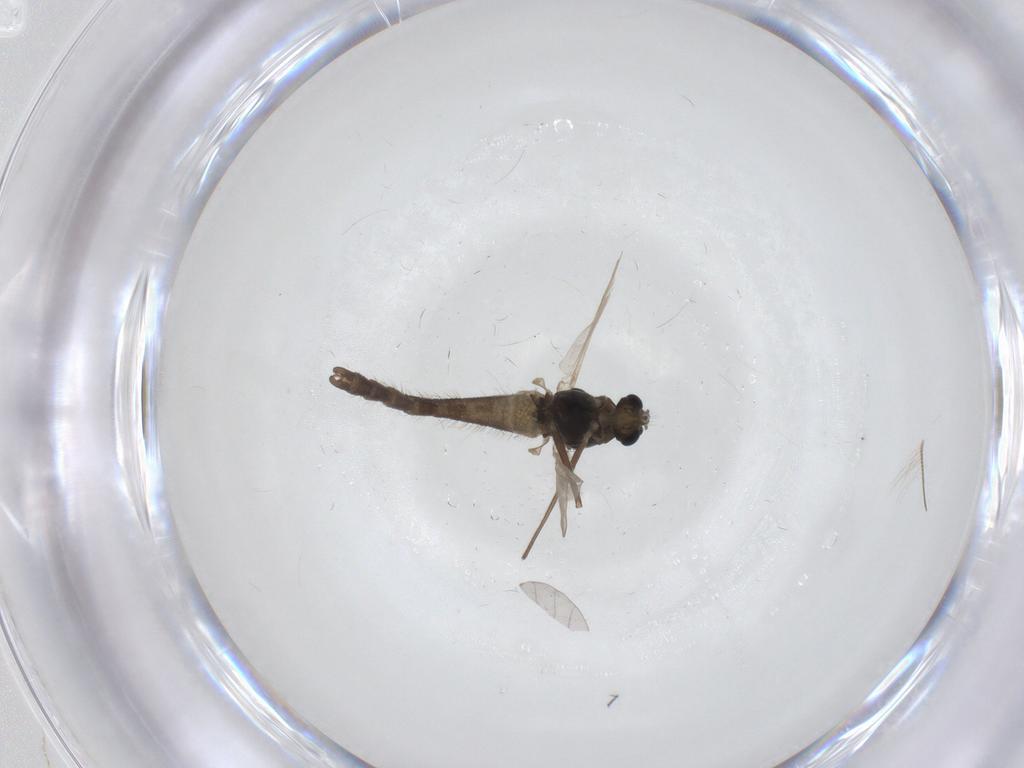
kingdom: Animalia
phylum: Arthropoda
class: Insecta
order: Diptera
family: Chironomidae
